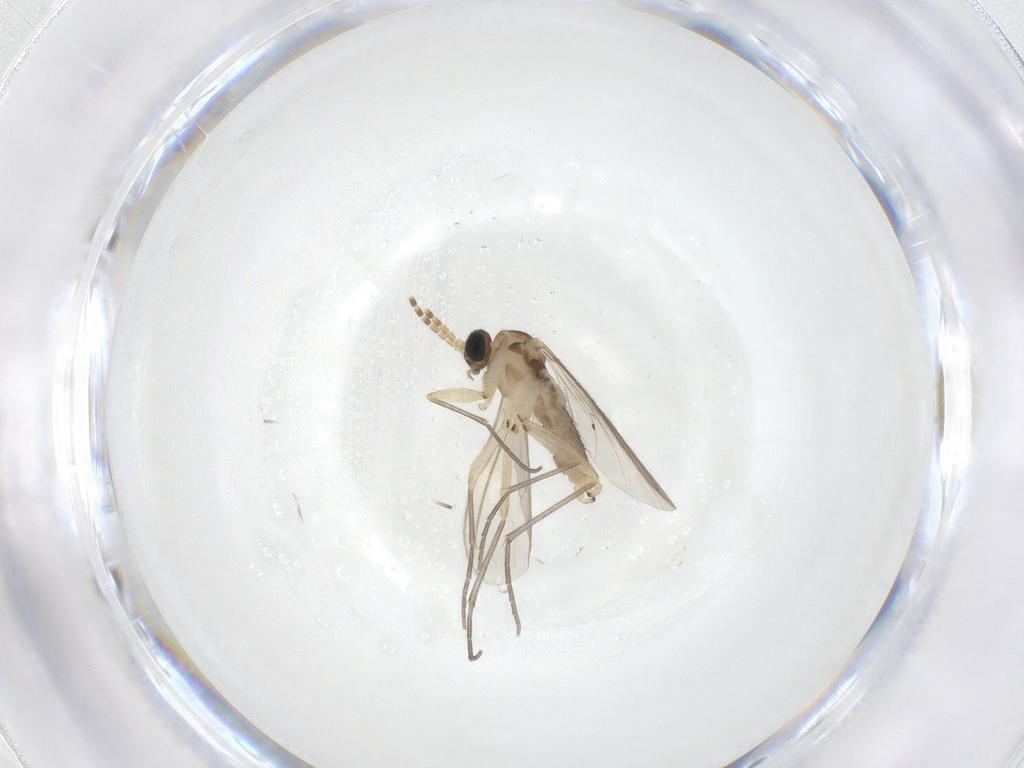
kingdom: Animalia
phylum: Arthropoda
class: Insecta
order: Diptera
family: Sciaridae
